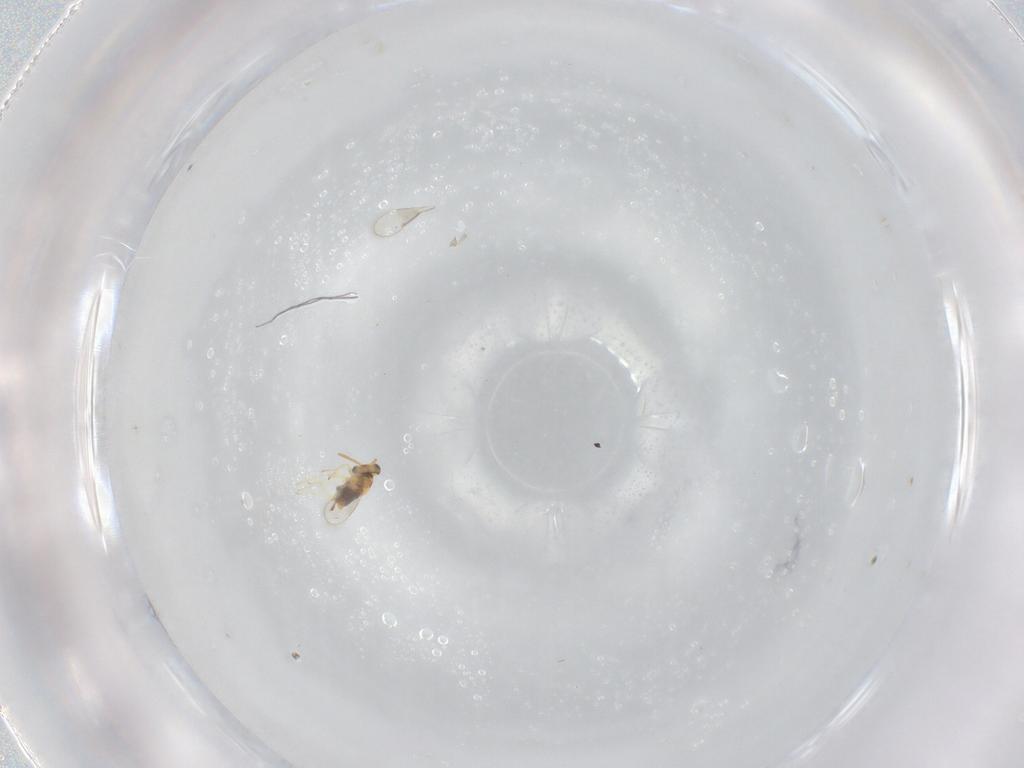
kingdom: Animalia
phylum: Arthropoda
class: Insecta
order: Hymenoptera
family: Aphelinidae
